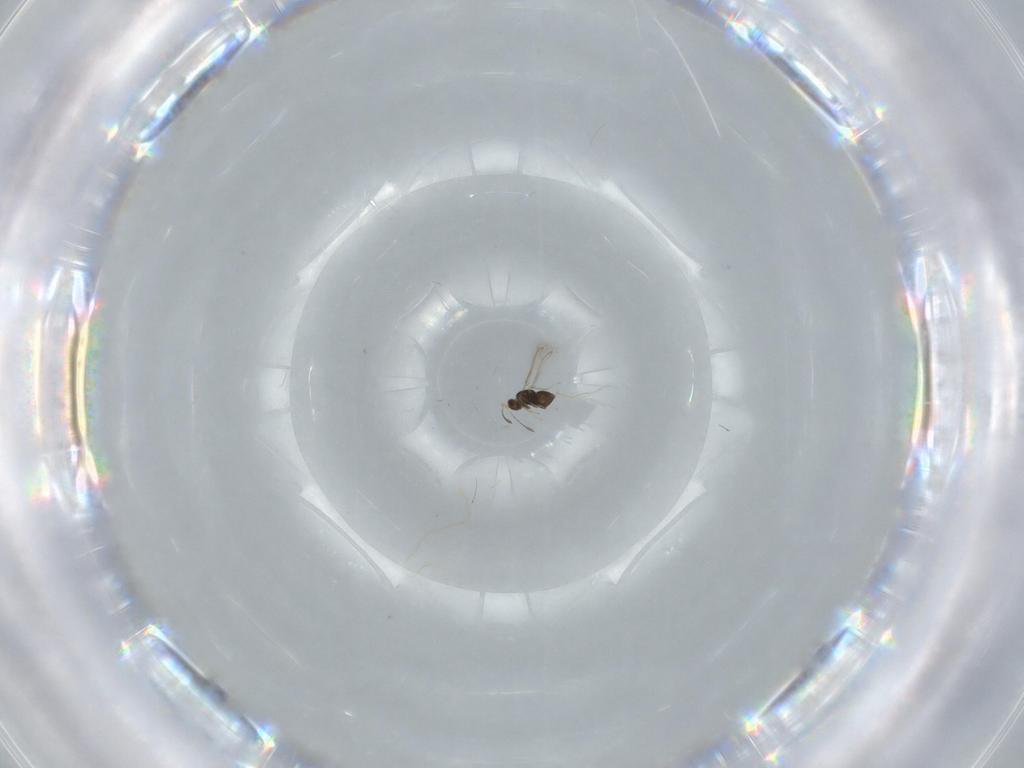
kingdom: Animalia
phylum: Arthropoda
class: Insecta
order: Hymenoptera
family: Mymaridae
